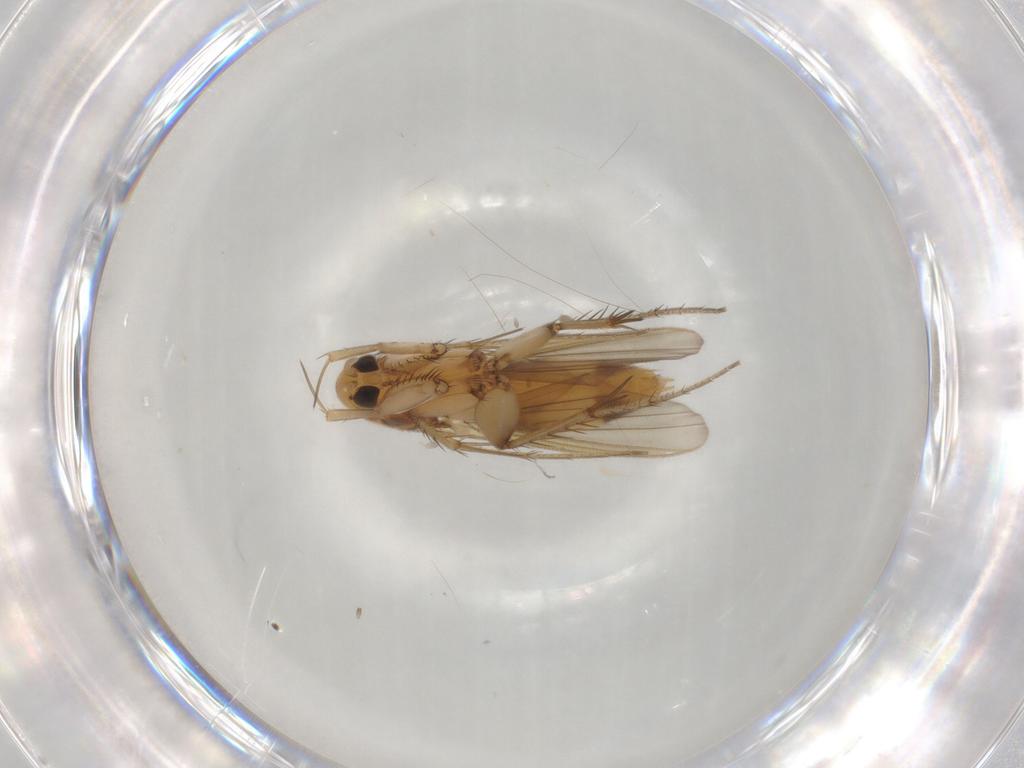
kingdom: Animalia
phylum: Arthropoda
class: Insecta
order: Diptera
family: Mycetophilidae
